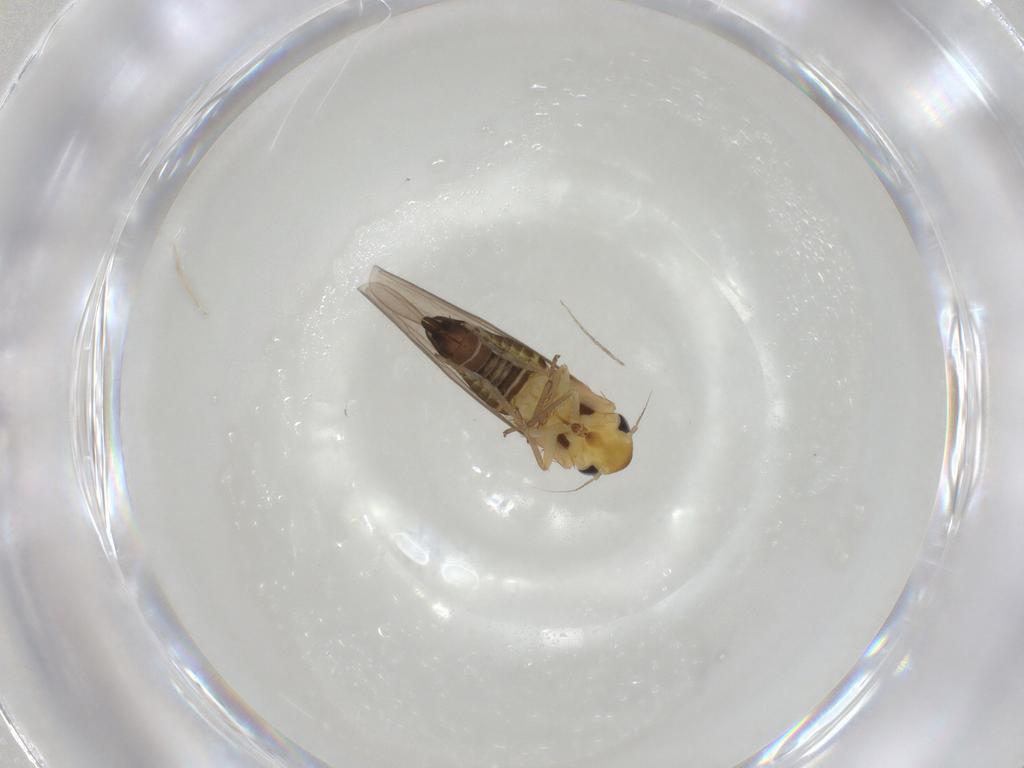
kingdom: Animalia
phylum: Arthropoda
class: Insecta
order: Hemiptera
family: Cicadellidae
